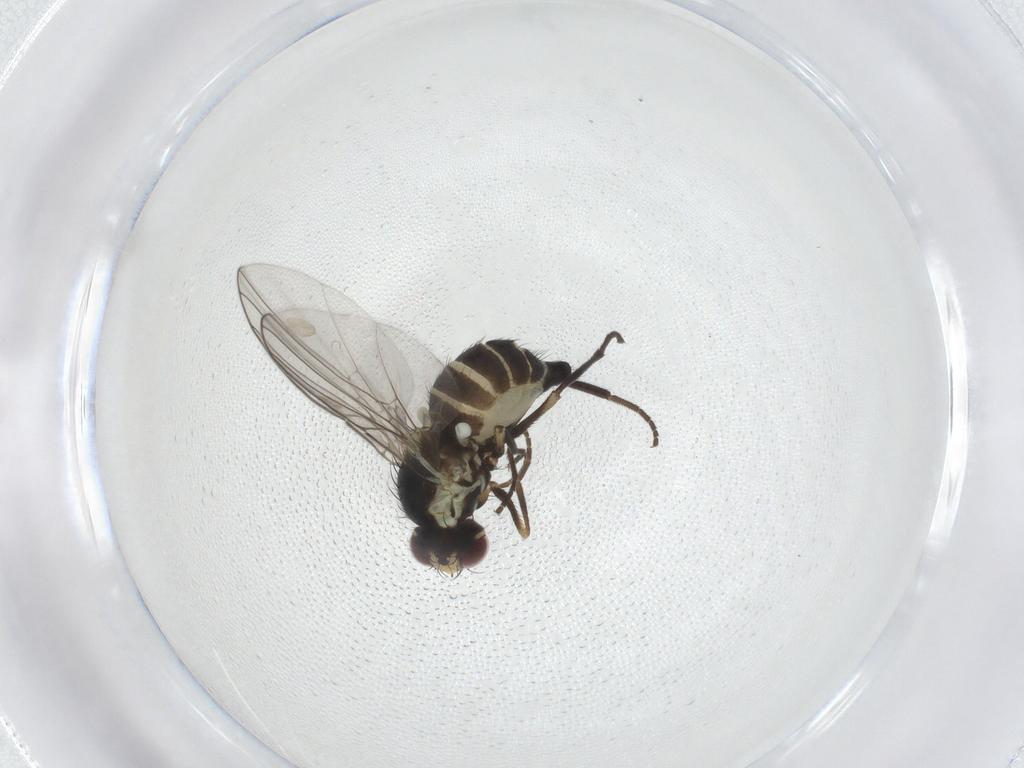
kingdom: Animalia
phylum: Arthropoda
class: Insecta
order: Diptera
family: Agromyzidae
